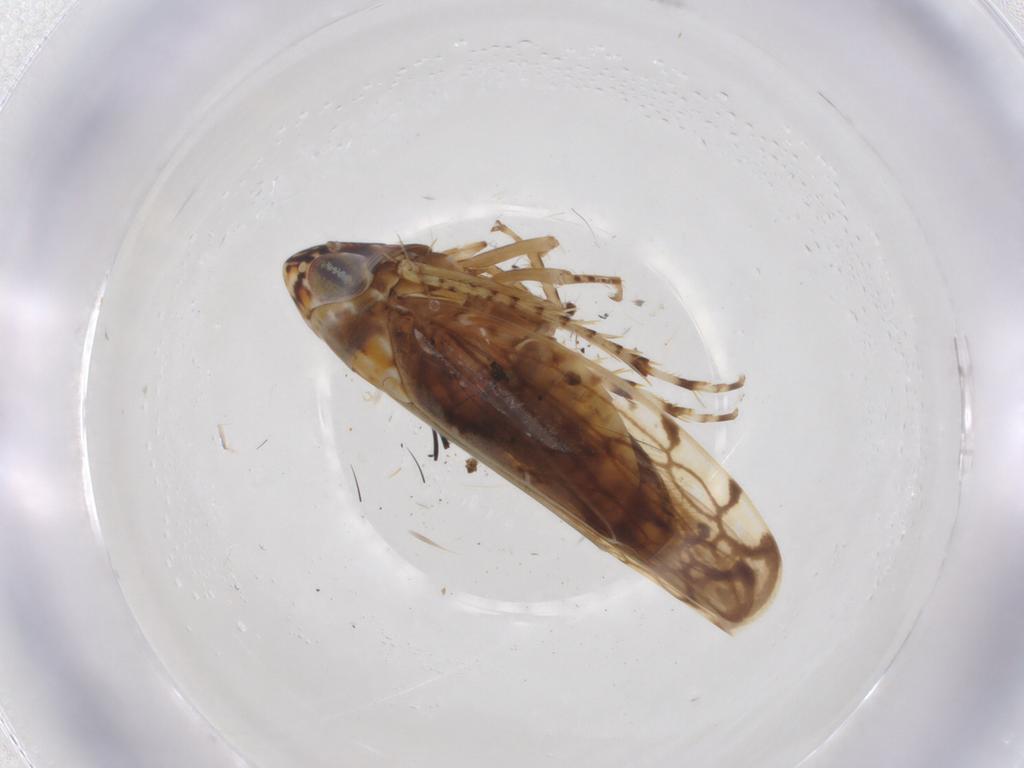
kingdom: Animalia
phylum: Arthropoda
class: Insecta
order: Hemiptera
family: Cicadellidae
